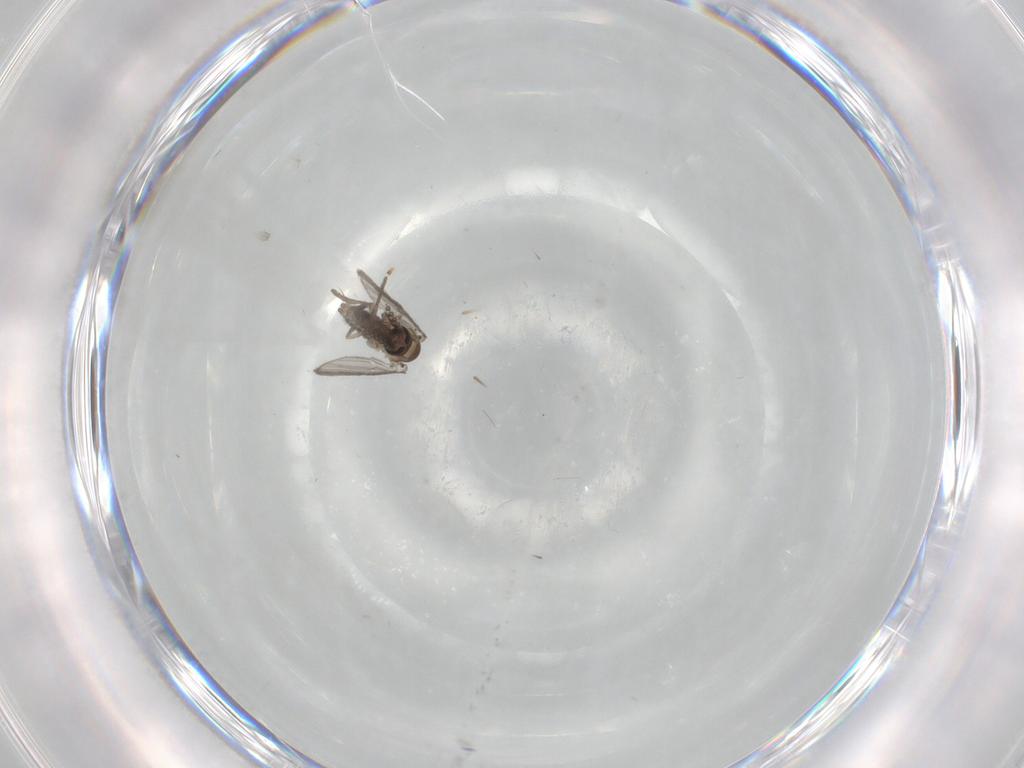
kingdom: Animalia
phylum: Arthropoda
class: Insecta
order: Diptera
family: Psychodidae
